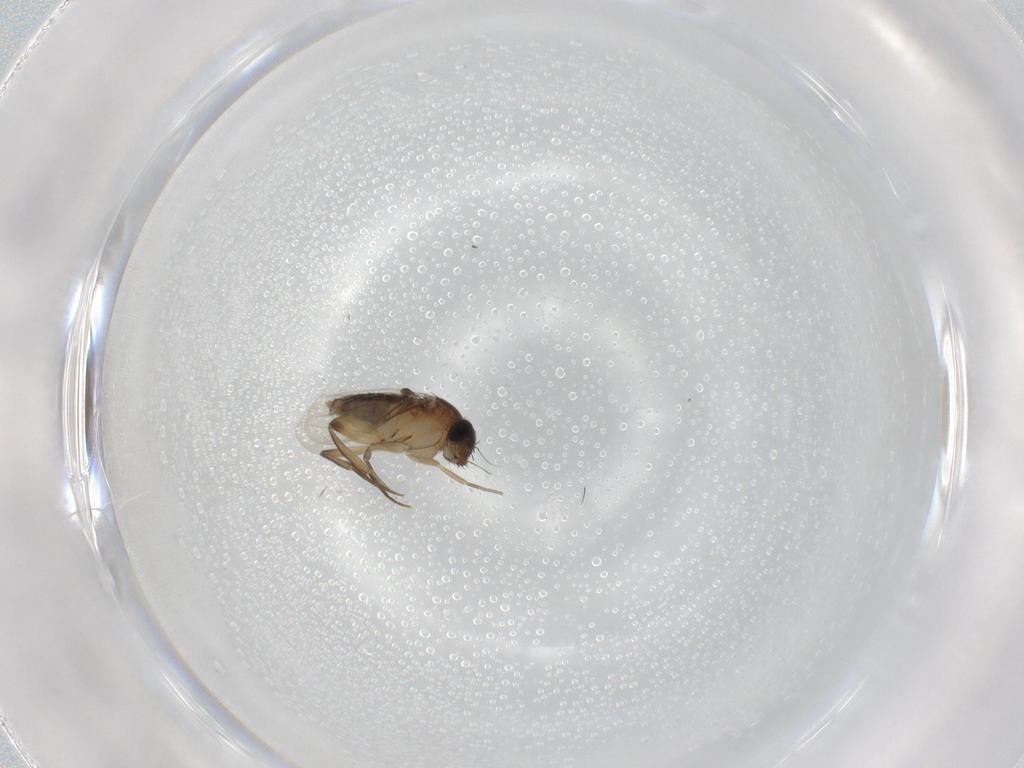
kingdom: Animalia
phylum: Arthropoda
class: Insecta
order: Diptera
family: Phoridae
